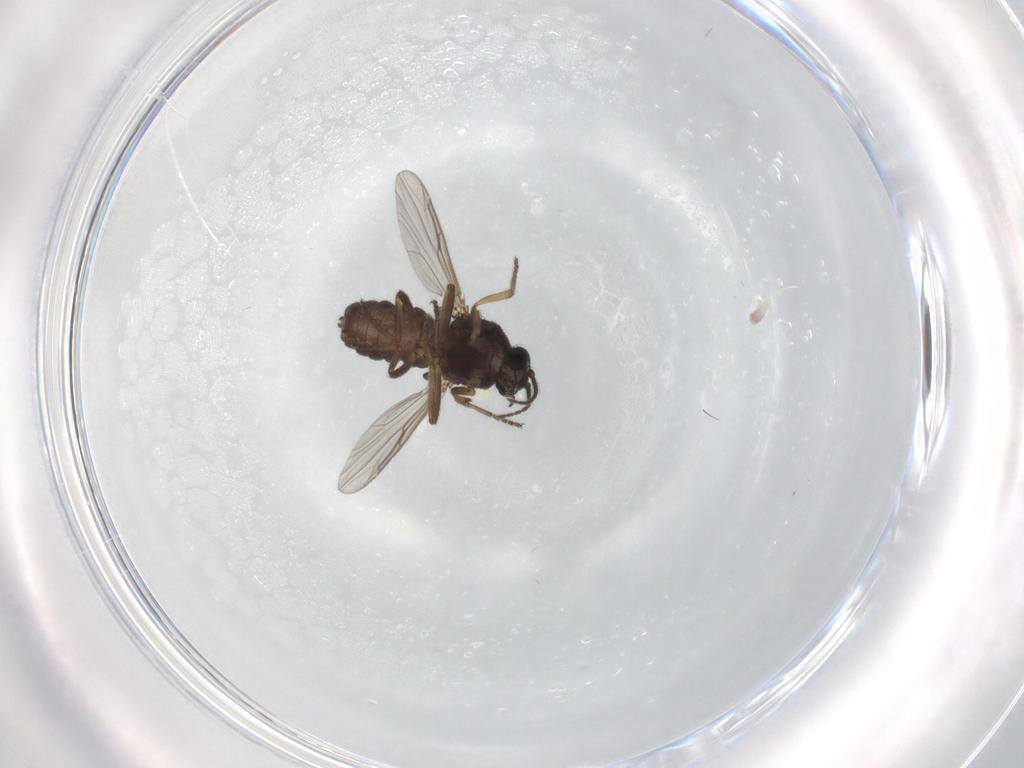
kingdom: Animalia
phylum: Arthropoda
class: Insecta
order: Diptera
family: Ceratopogonidae
